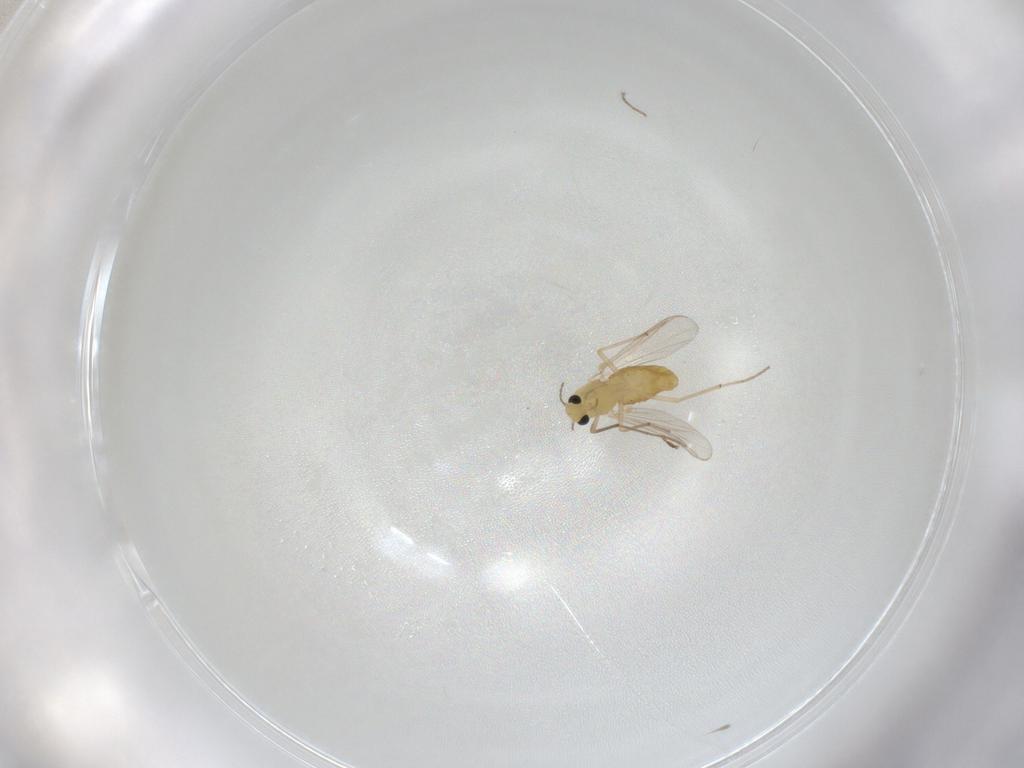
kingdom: Animalia
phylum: Arthropoda
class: Insecta
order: Diptera
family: Chironomidae
